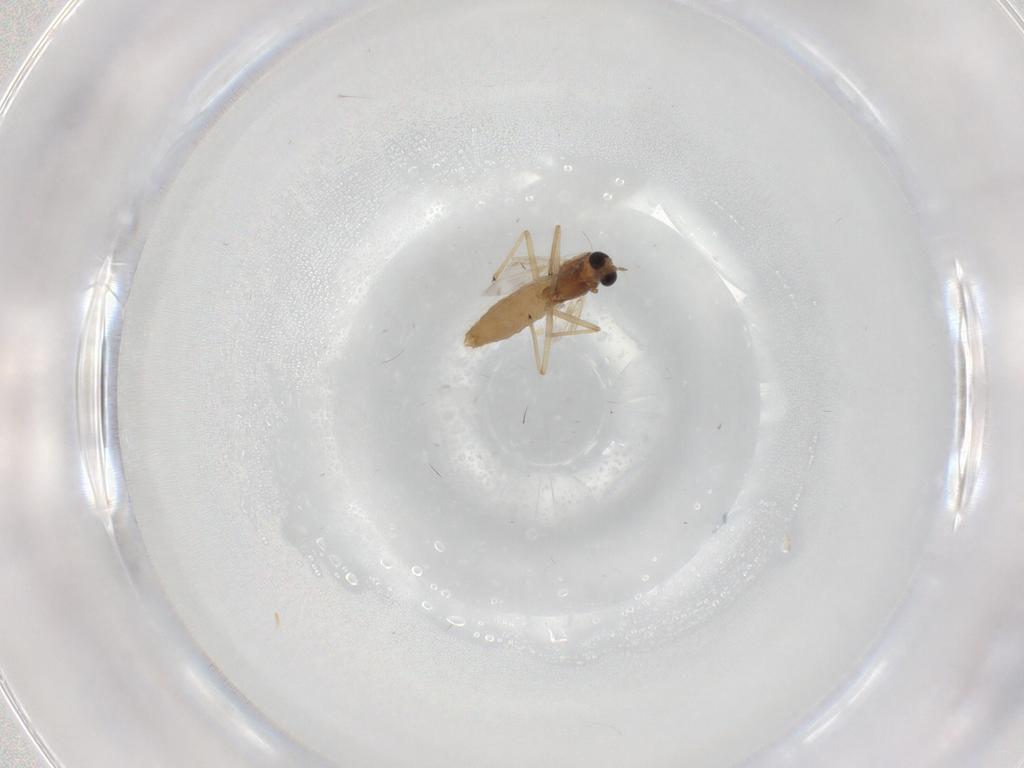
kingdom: Animalia
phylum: Arthropoda
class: Insecta
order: Diptera
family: Chironomidae
